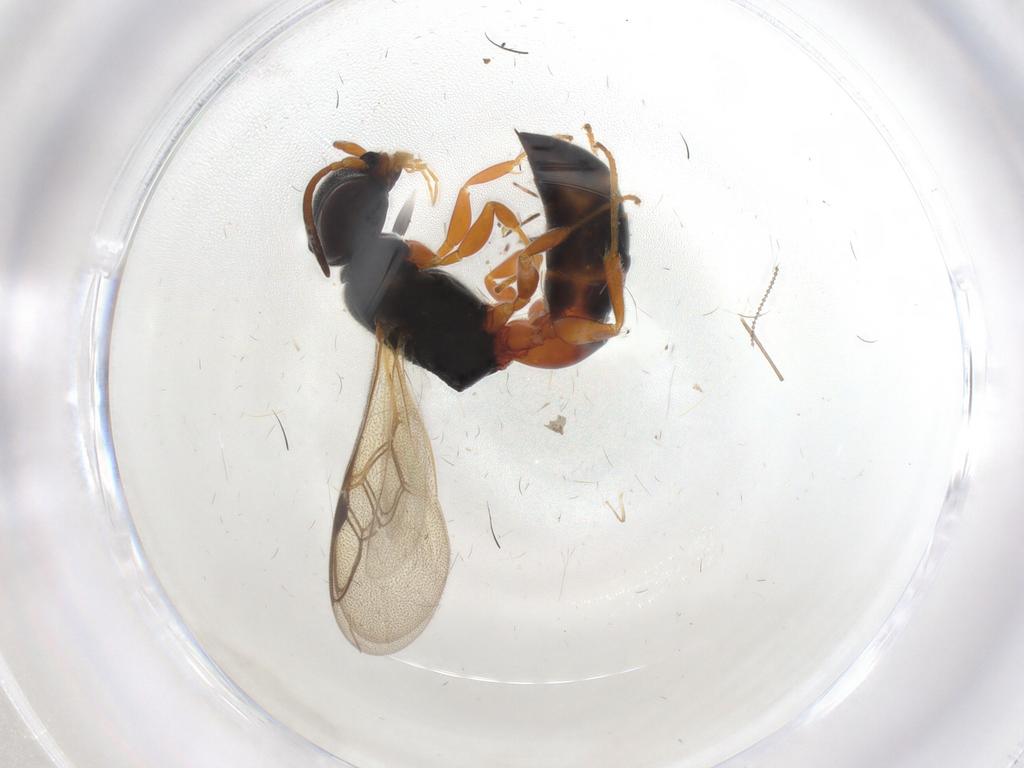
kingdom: Animalia
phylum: Arthropoda
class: Insecta
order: Hymenoptera
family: Crabronidae
